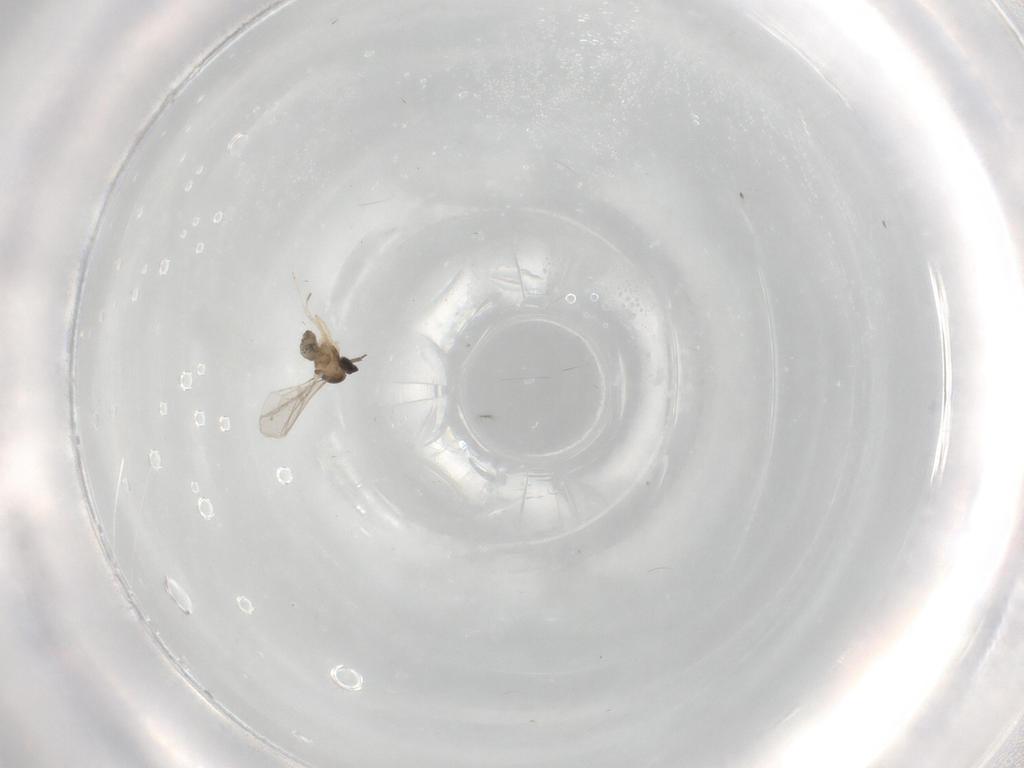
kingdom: Animalia
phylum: Arthropoda
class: Insecta
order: Diptera
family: Cecidomyiidae
